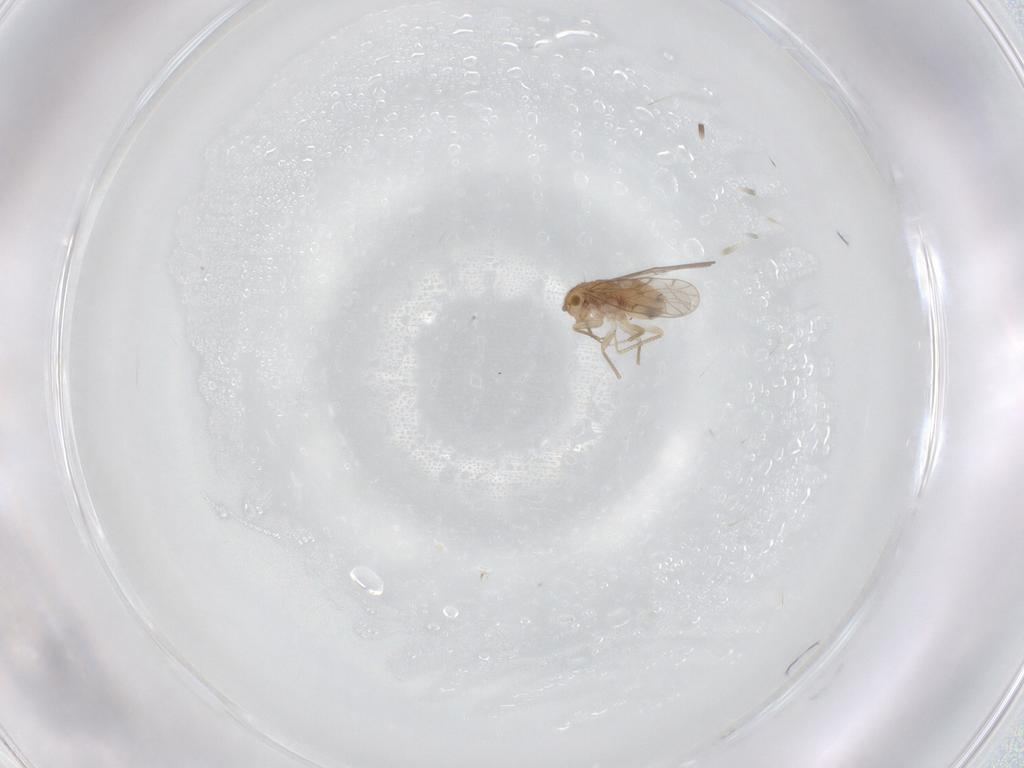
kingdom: Animalia
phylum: Arthropoda
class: Insecta
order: Psocodea
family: Ectopsocidae
